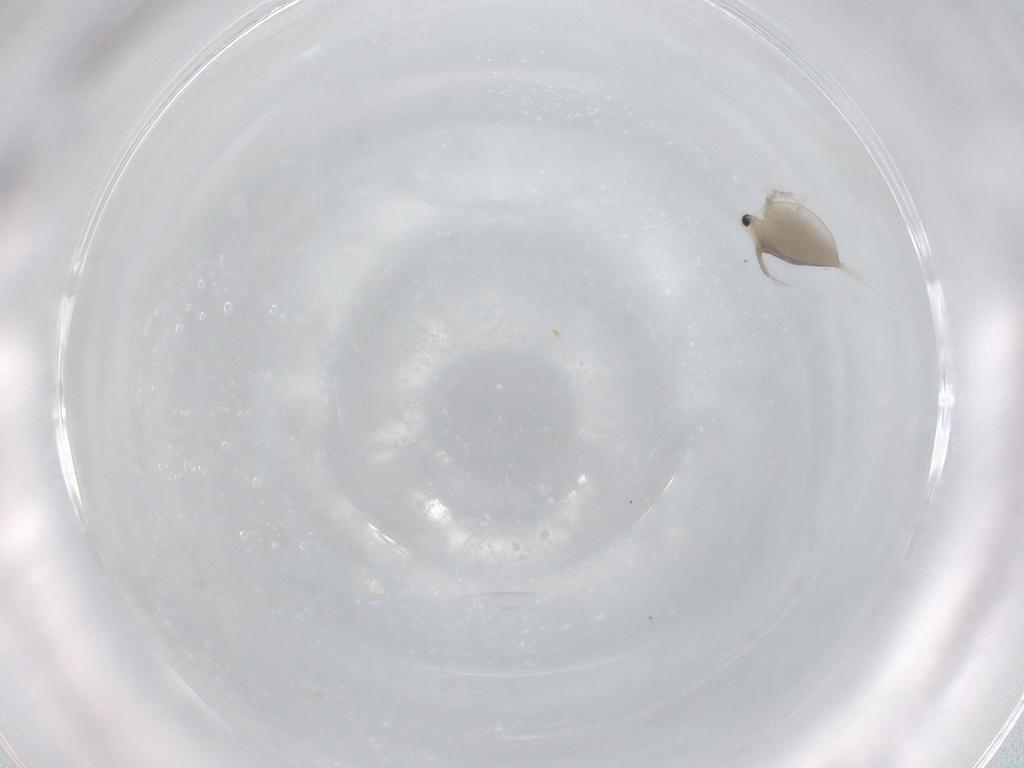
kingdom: Animalia
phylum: Arthropoda
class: Branchiopoda
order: Diplostraca
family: Daphniidae
